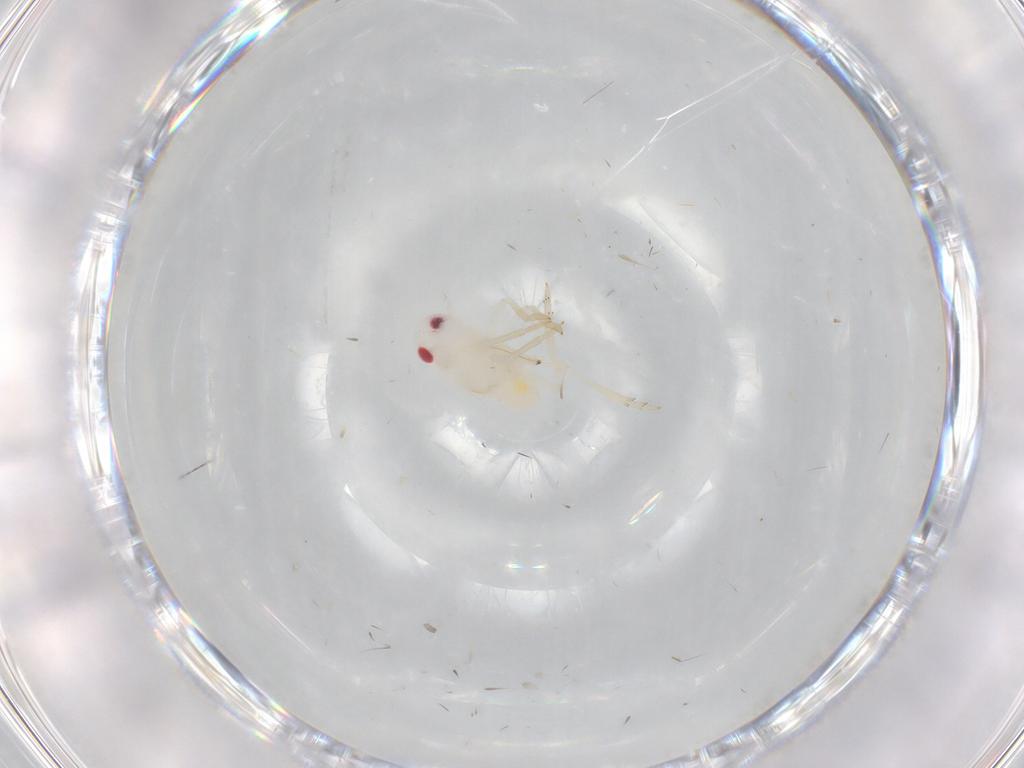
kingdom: Animalia
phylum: Arthropoda
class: Insecta
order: Hemiptera
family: Tropiduchidae
